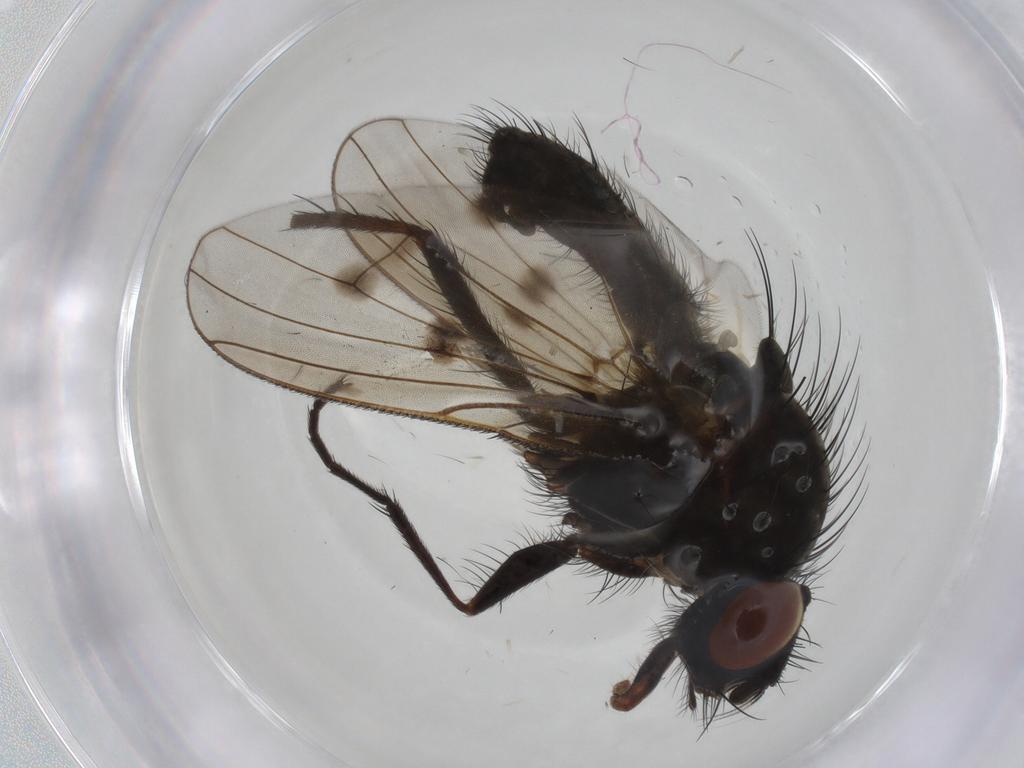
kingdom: Animalia
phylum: Arthropoda
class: Insecta
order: Diptera
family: Anthomyiidae
